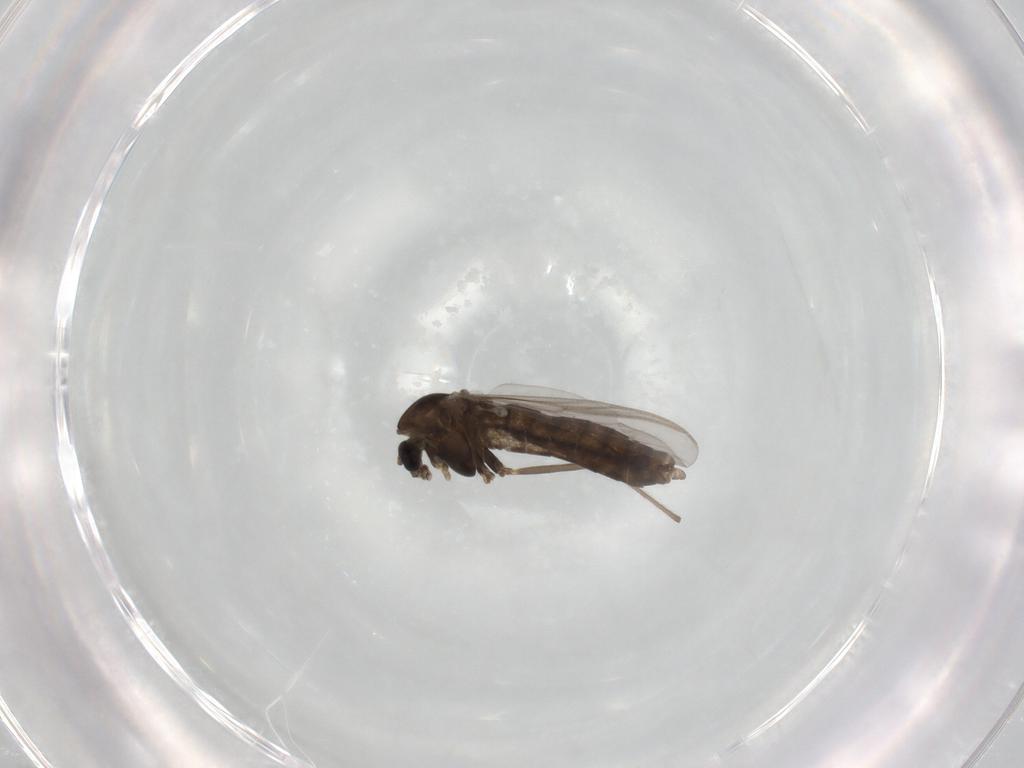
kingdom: Animalia
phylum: Arthropoda
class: Insecta
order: Diptera
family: Chironomidae
